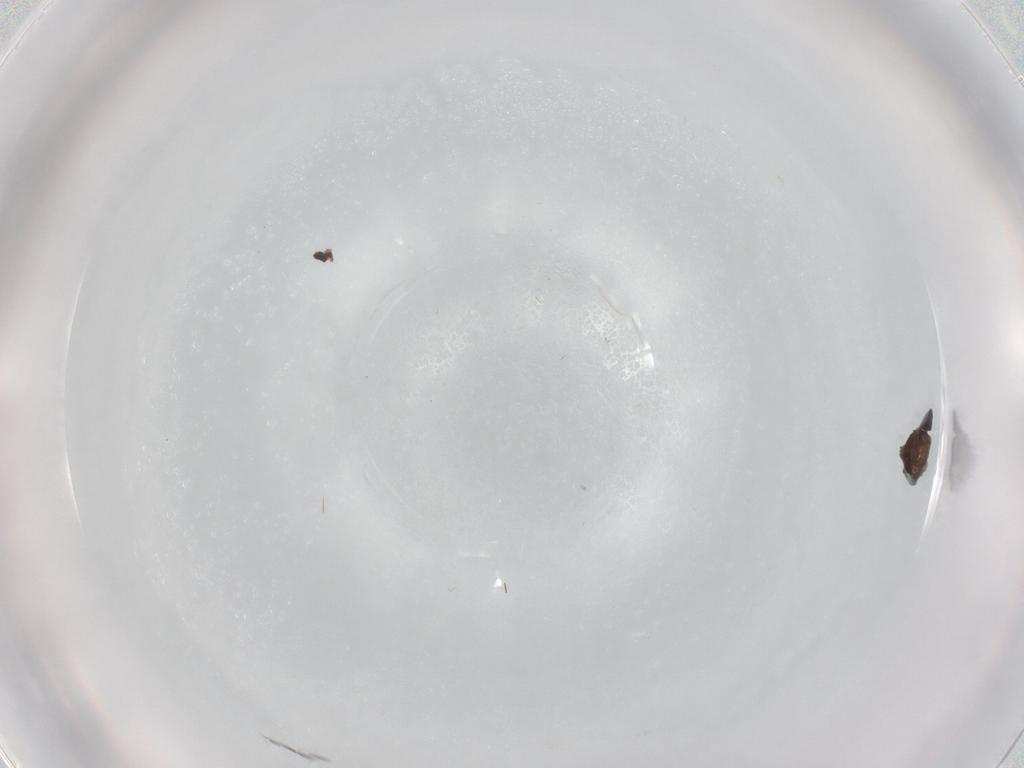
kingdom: Animalia
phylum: Arthropoda
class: Insecta
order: Diptera
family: Cecidomyiidae
